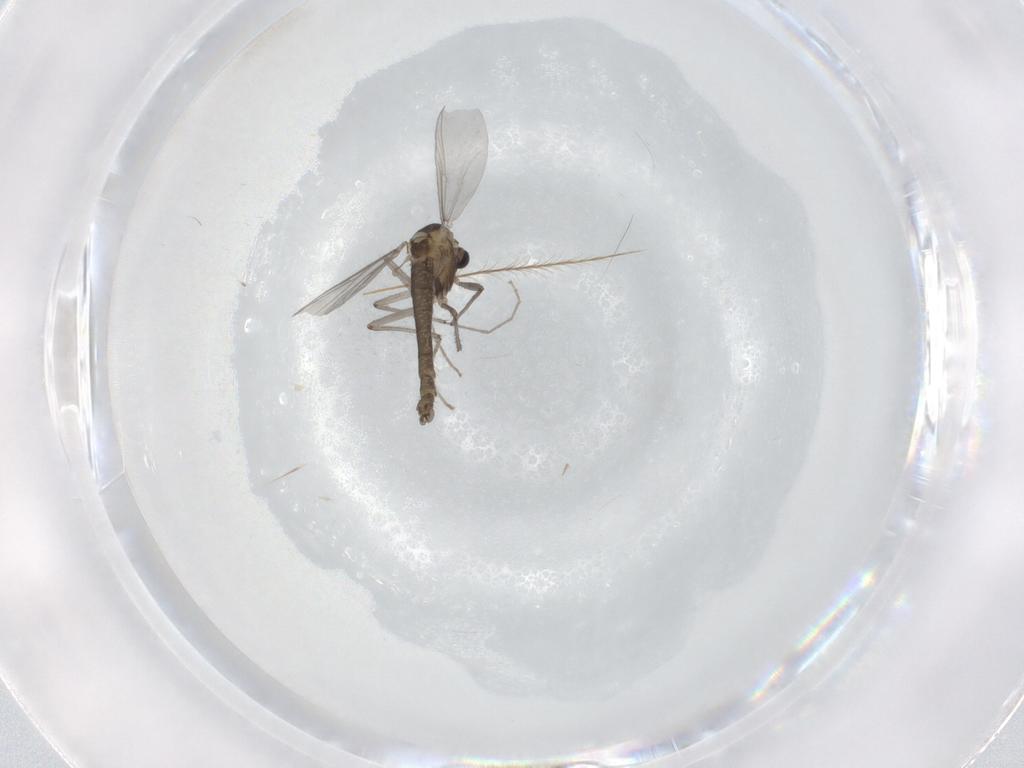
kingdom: Animalia
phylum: Arthropoda
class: Insecta
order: Diptera
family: Chironomidae
